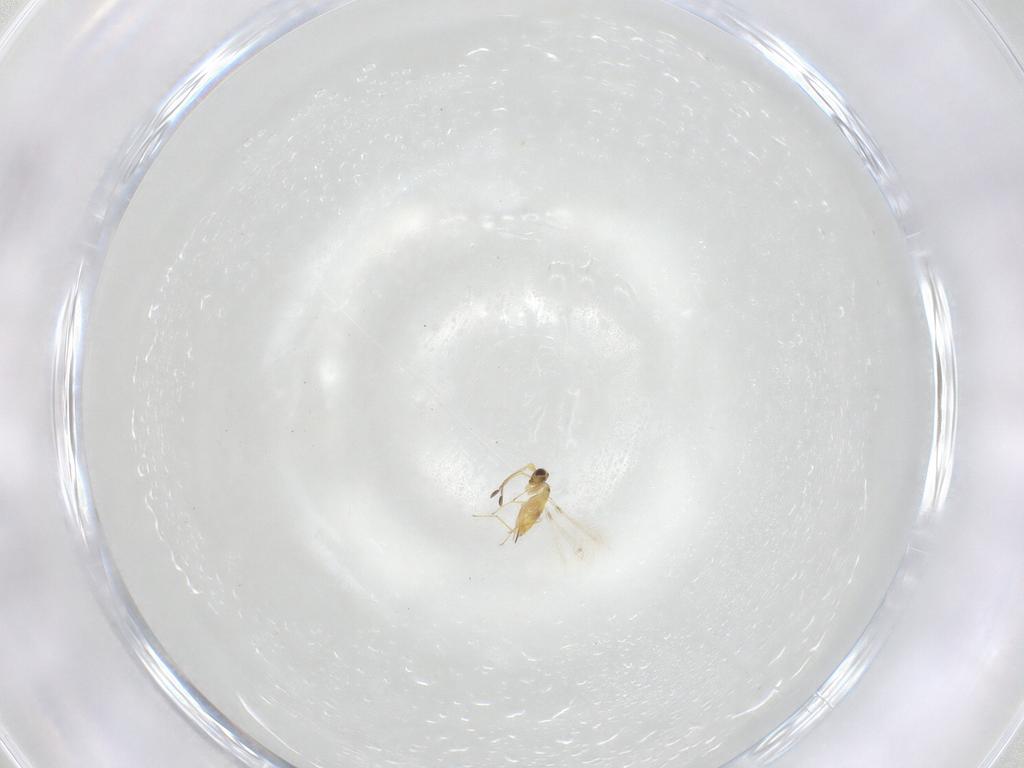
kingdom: Animalia
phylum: Arthropoda
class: Insecta
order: Hymenoptera
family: Mymaridae
